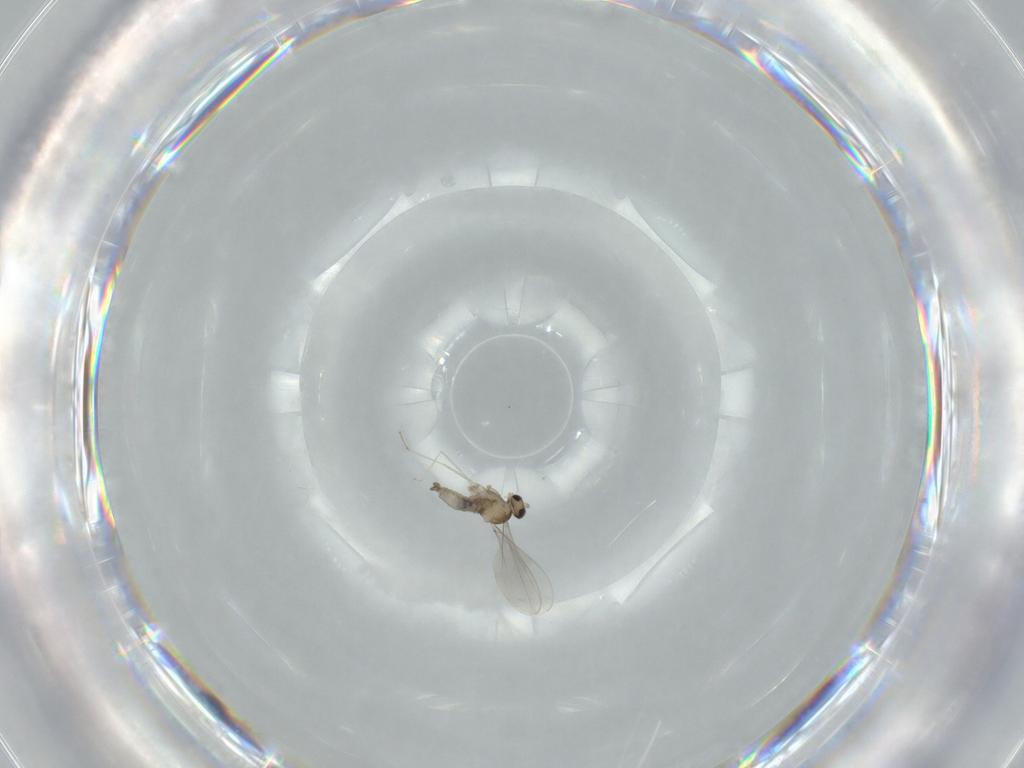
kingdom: Animalia
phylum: Arthropoda
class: Insecta
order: Diptera
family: Cecidomyiidae
